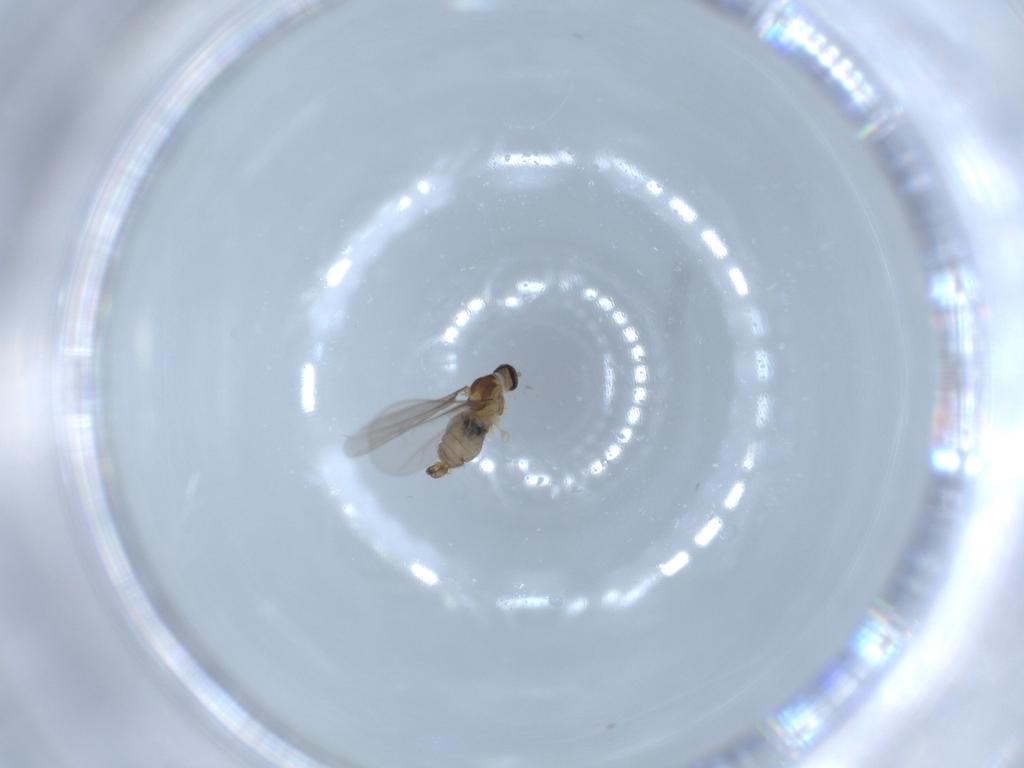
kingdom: Animalia
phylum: Arthropoda
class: Insecta
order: Diptera
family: Cecidomyiidae
